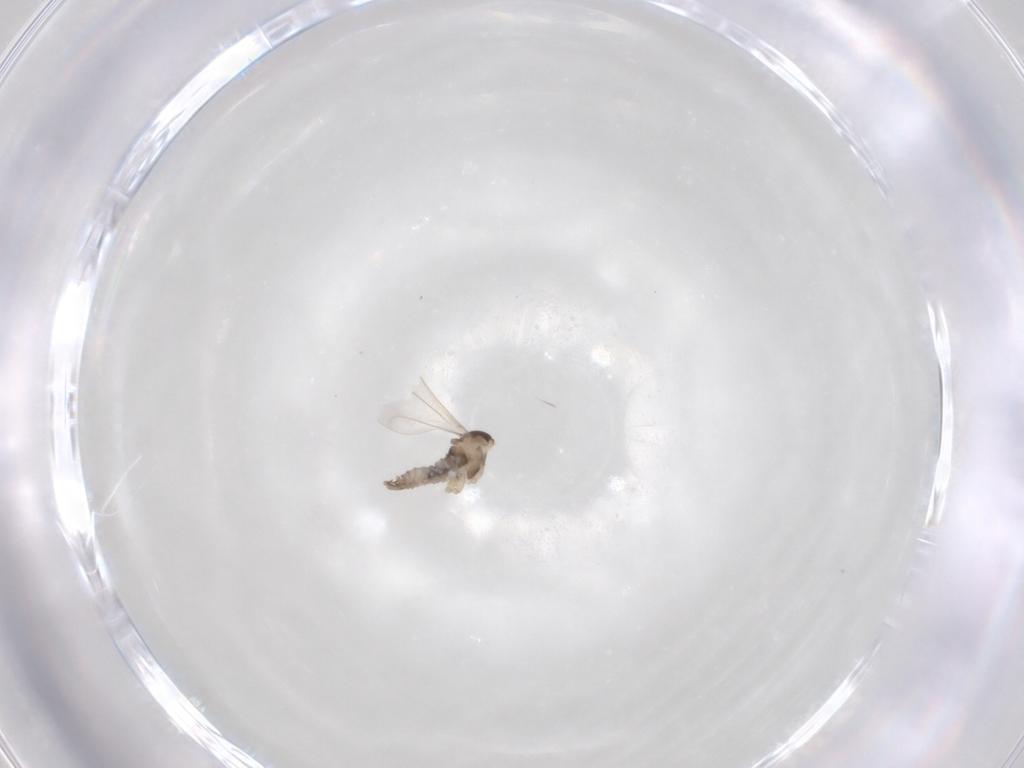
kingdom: Animalia
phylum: Arthropoda
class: Insecta
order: Diptera
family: Cecidomyiidae
